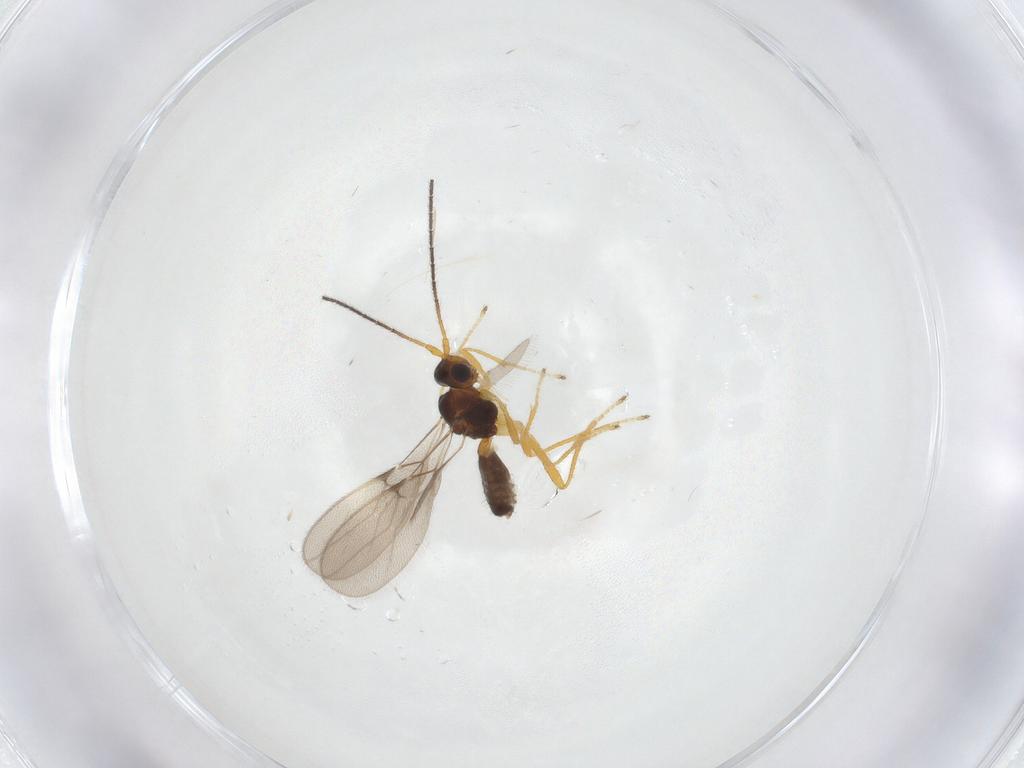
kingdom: Animalia
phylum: Arthropoda
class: Insecta
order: Hymenoptera
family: Braconidae
